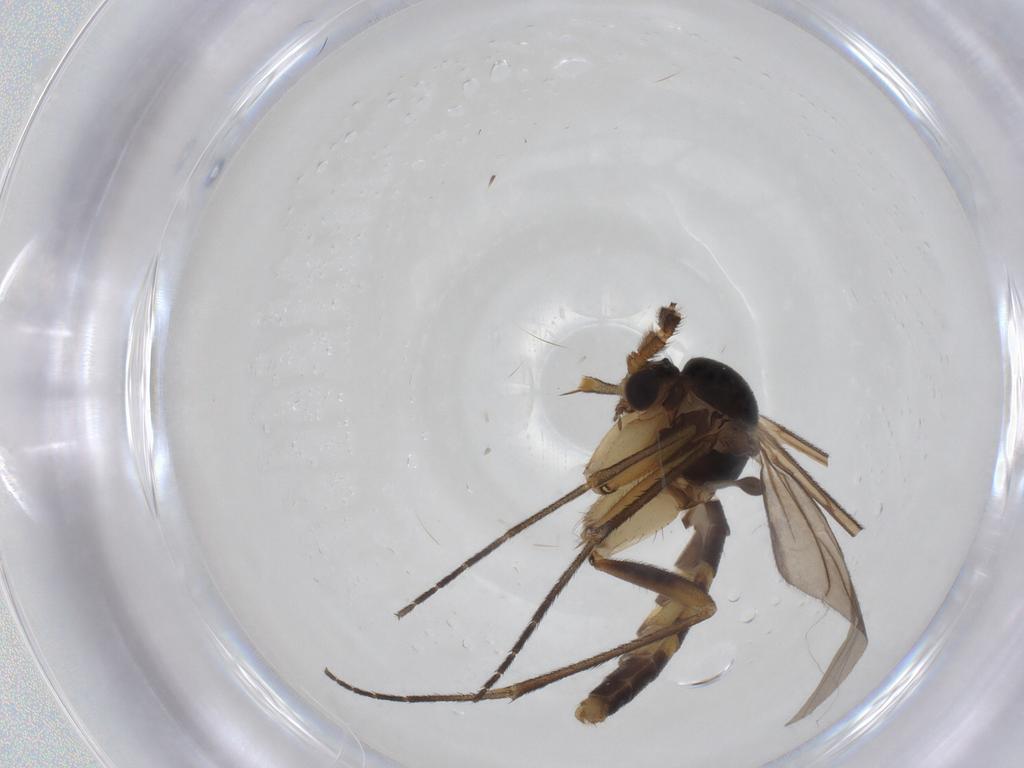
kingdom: Animalia
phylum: Arthropoda
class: Insecta
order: Diptera
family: Mycetophilidae
